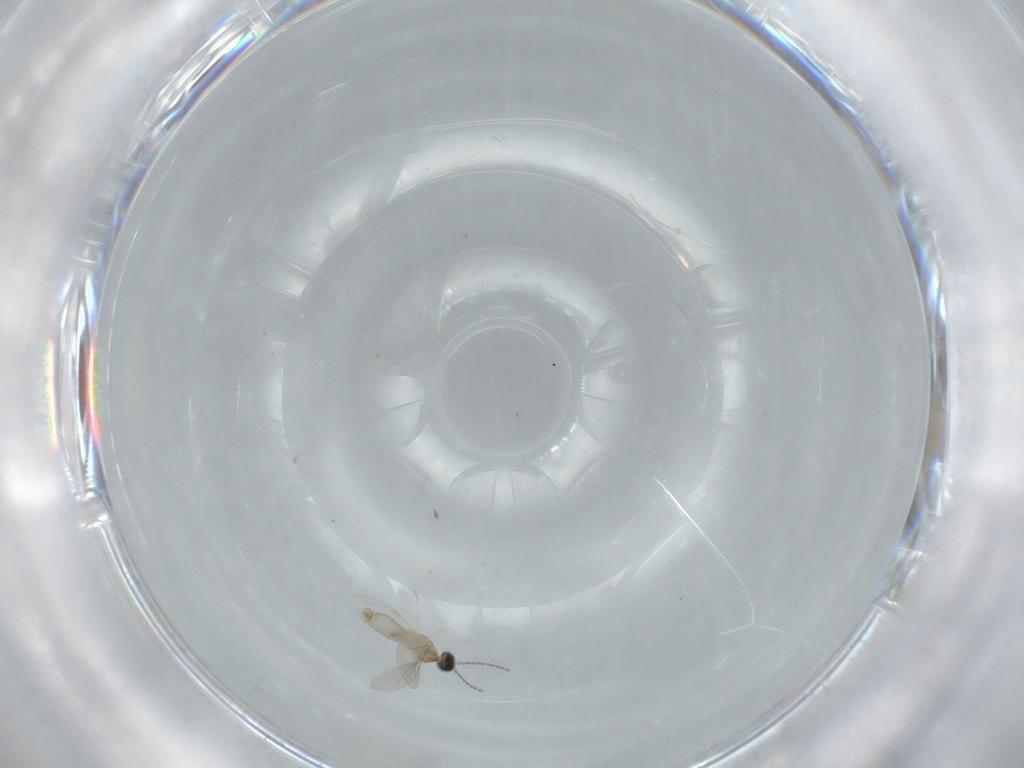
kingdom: Animalia
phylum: Arthropoda
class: Insecta
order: Diptera
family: Cecidomyiidae
